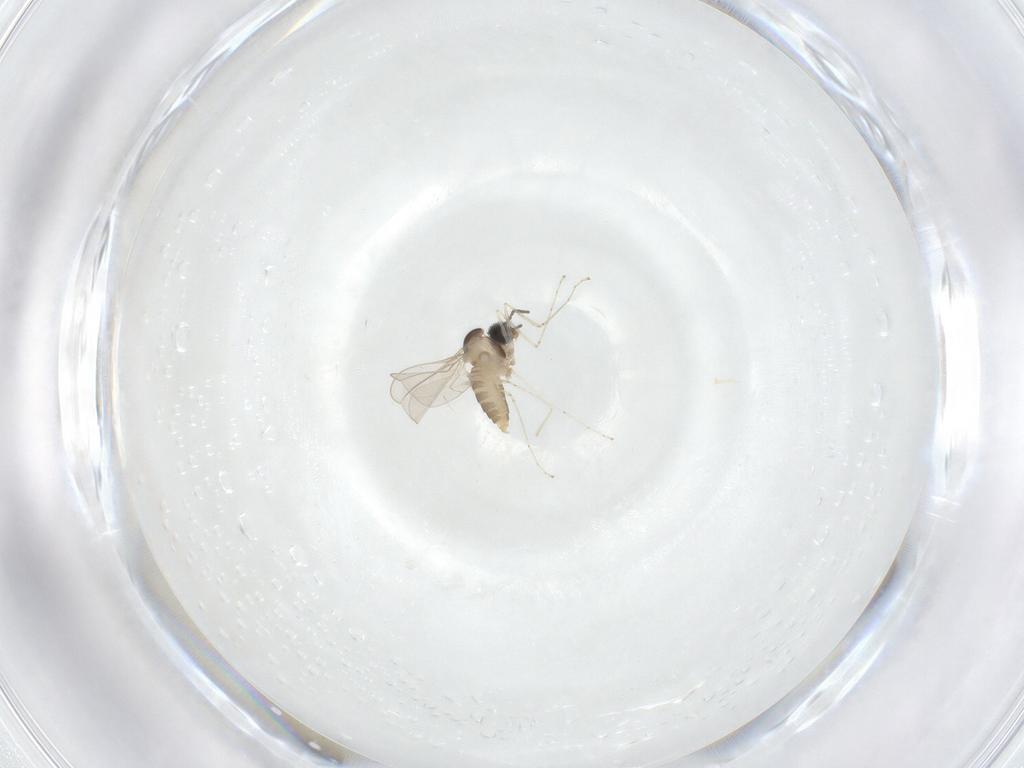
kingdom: Animalia
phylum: Arthropoda
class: Insecta
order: Diptera
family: Cecidomyiidae
